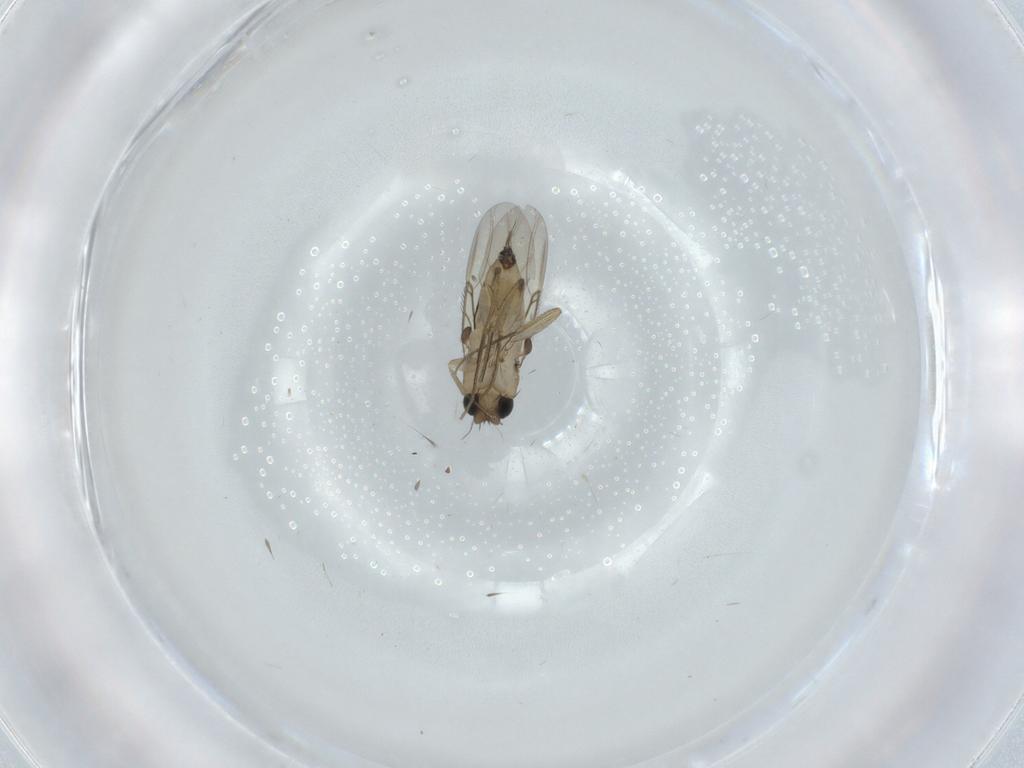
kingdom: Animalia
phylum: Arthropoda
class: Insecta
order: Diptera
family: Phoridae
